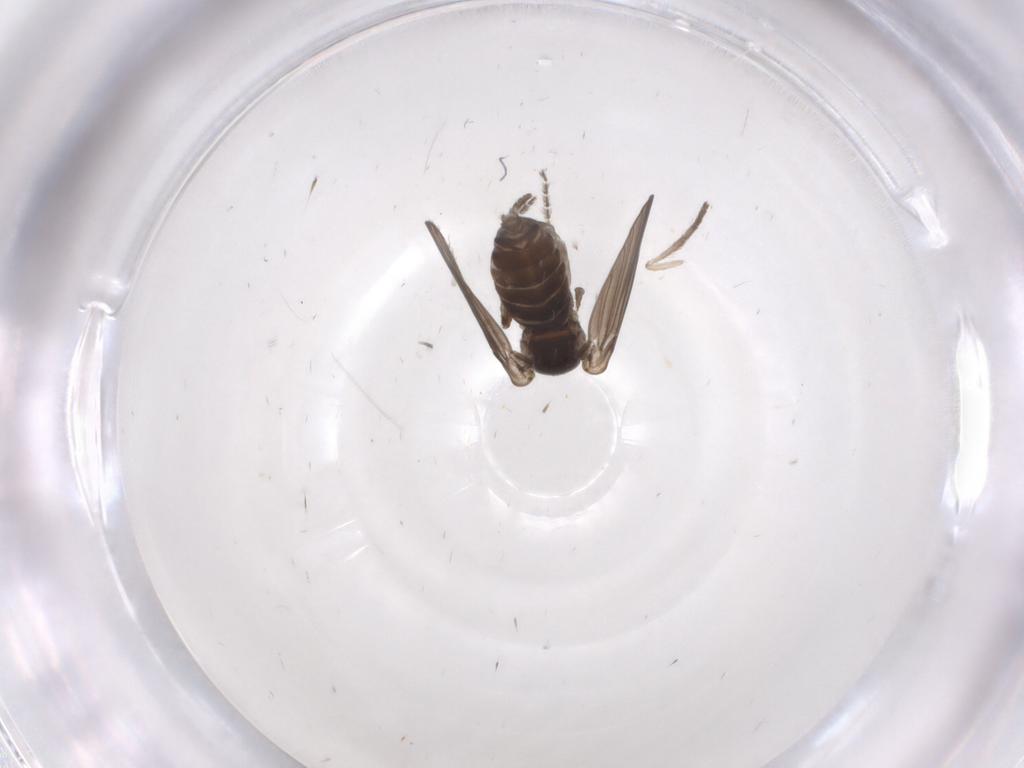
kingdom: Animalia
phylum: Arthropoda
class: Insecta
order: Diptera
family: Psychodidae
